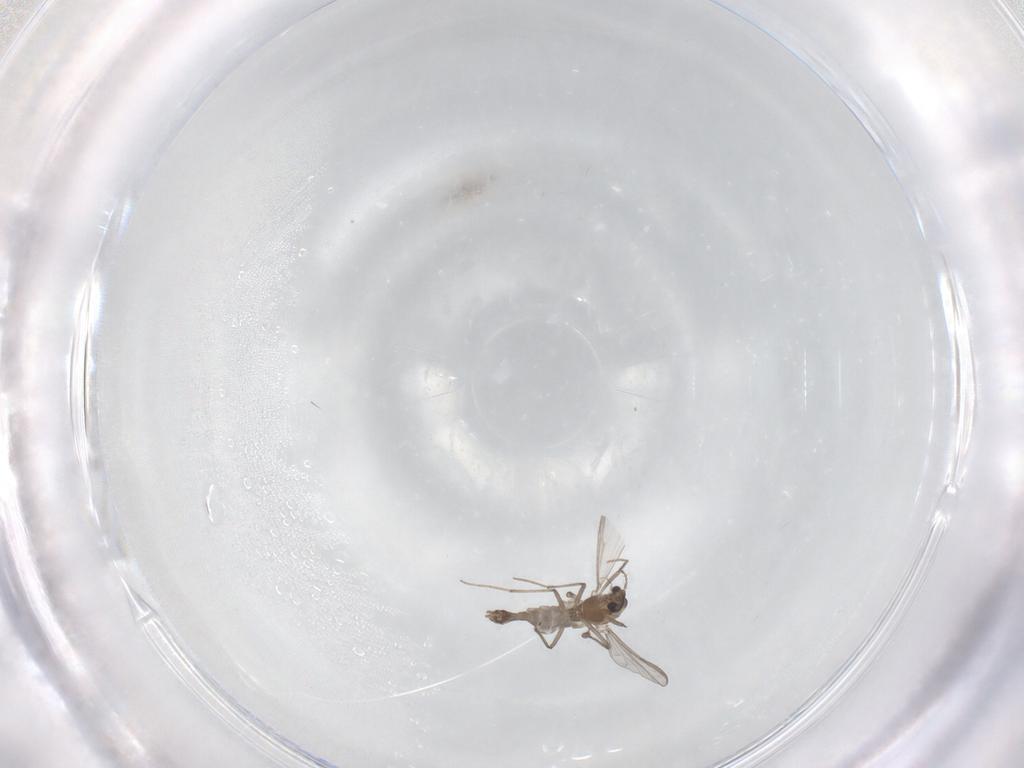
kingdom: Animalia
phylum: Arthropoda
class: Insecta
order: Diptera
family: Chironomidae
